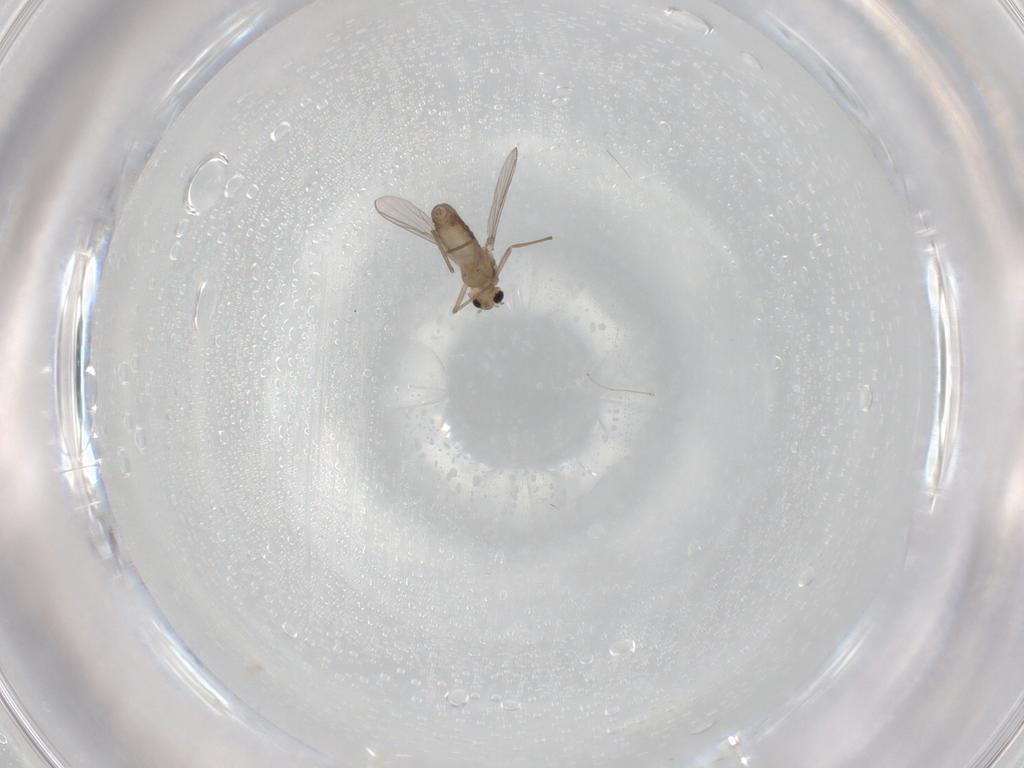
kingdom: Animalia
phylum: Arthropoda
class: Insecta
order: Diptera
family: Chironomidae
